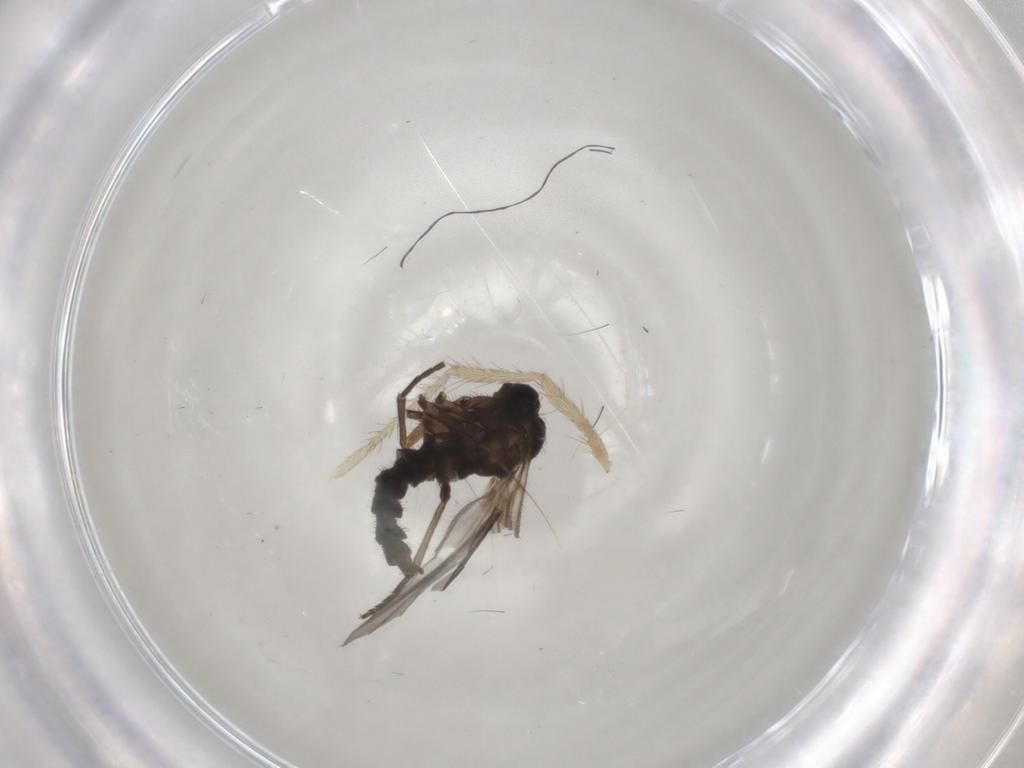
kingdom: Animalia
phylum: Arthropoda
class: Insecta
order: Diptera
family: Sciaridae
